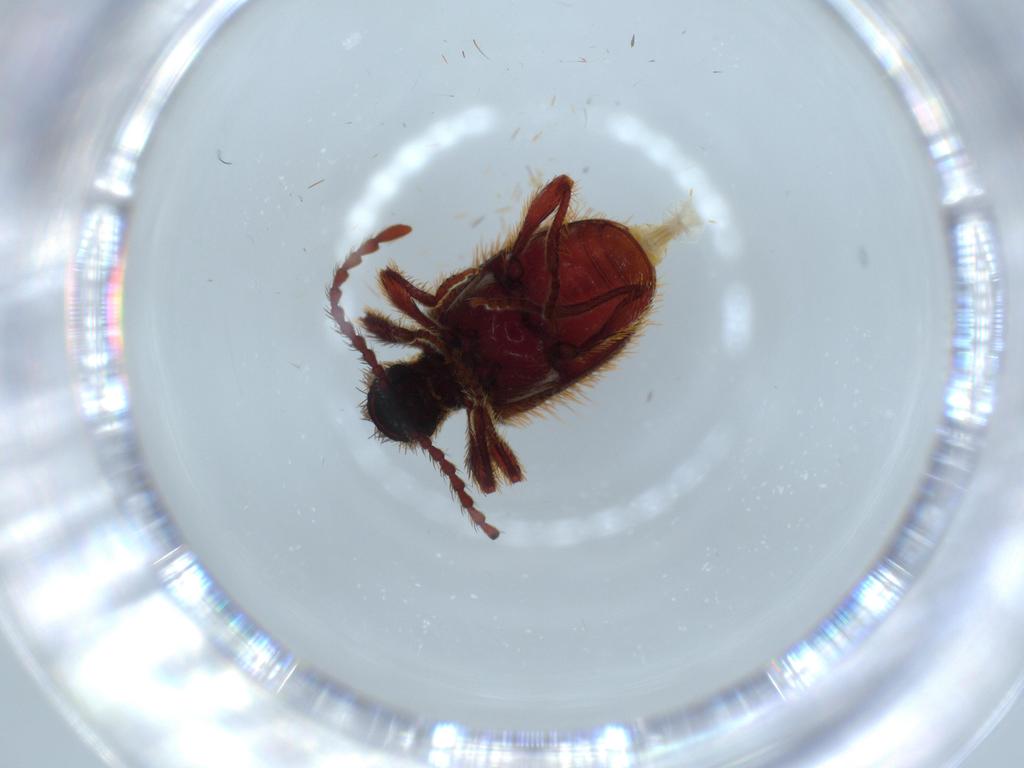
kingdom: Animalia
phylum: Arthropoda
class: Insecta
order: Coleoptera
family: Ptinidae
